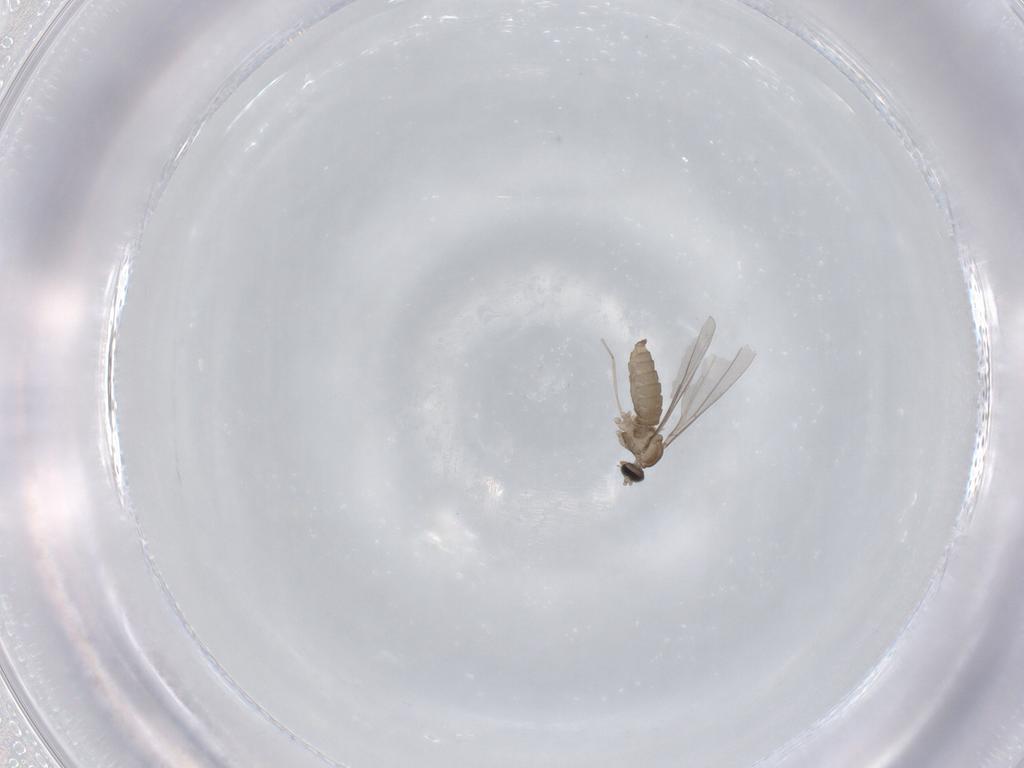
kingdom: Animalia
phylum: Arthropoda
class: Insecta
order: Diptera
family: Cecidomyiidae
